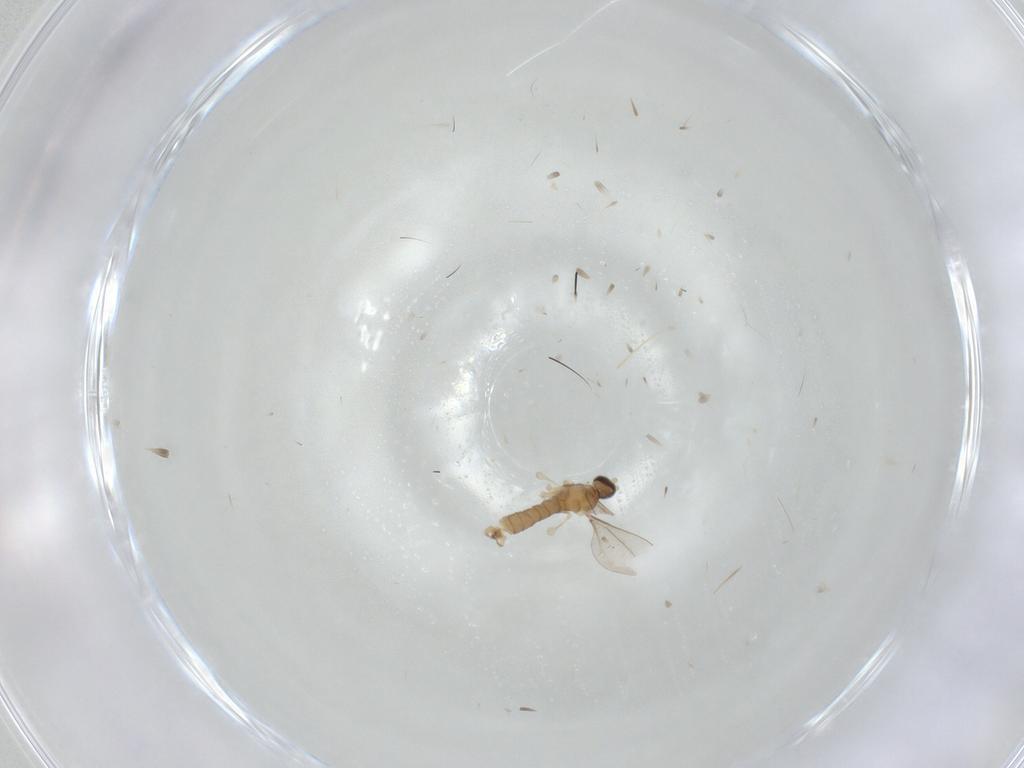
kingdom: Animalia
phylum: Arthropoda
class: Insecta
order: Diptera
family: Cecidomyiidae
